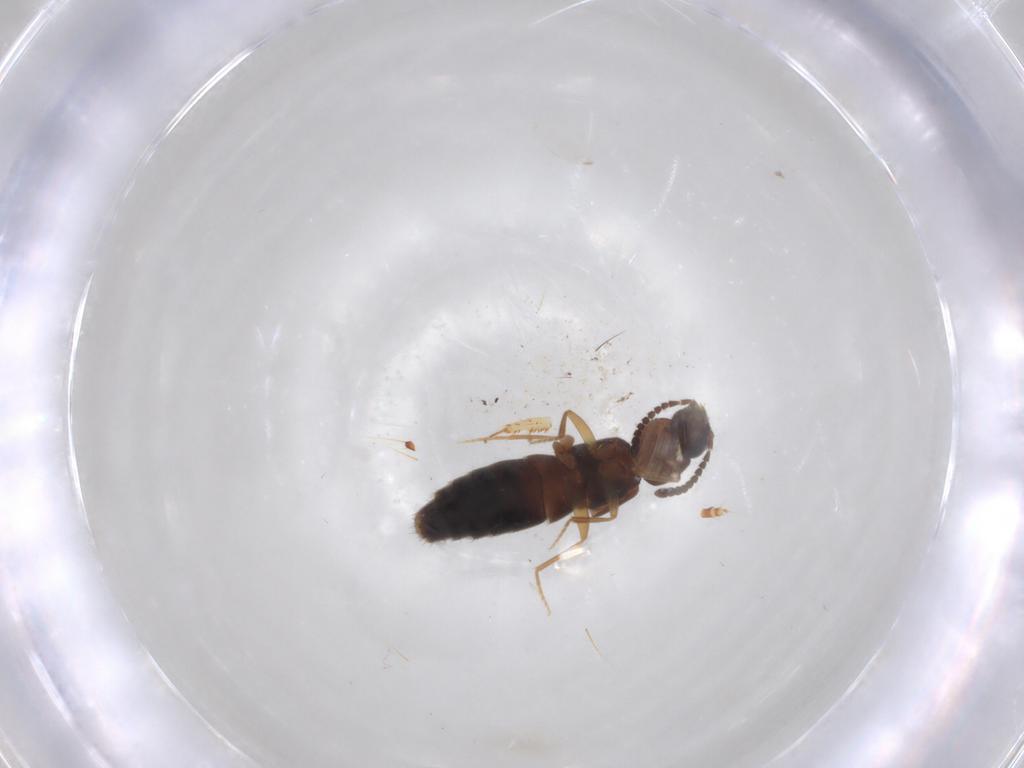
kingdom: Animalia
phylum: Arthropoda
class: Insecta
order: Coleoptera
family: Staphylinidae
